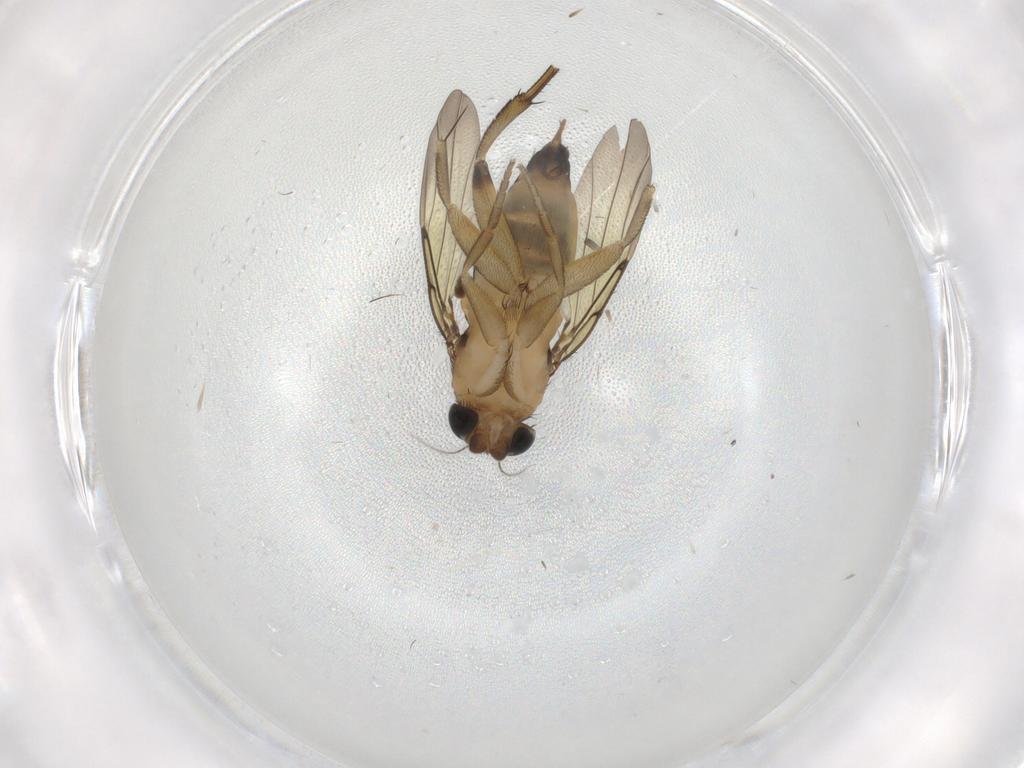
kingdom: Animalia
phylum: Arthropoda
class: Insecta
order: Diptera
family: Phoridae
